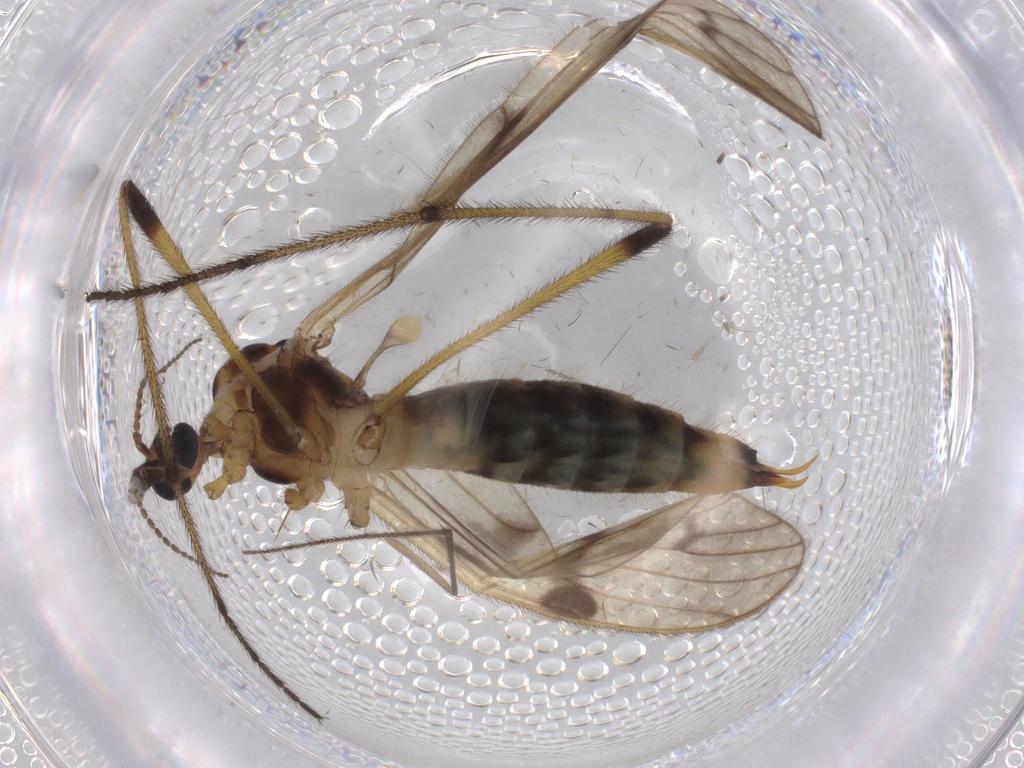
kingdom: Animalia
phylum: Arthropoda
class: Insecta
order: Diptera
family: Limoniidae
